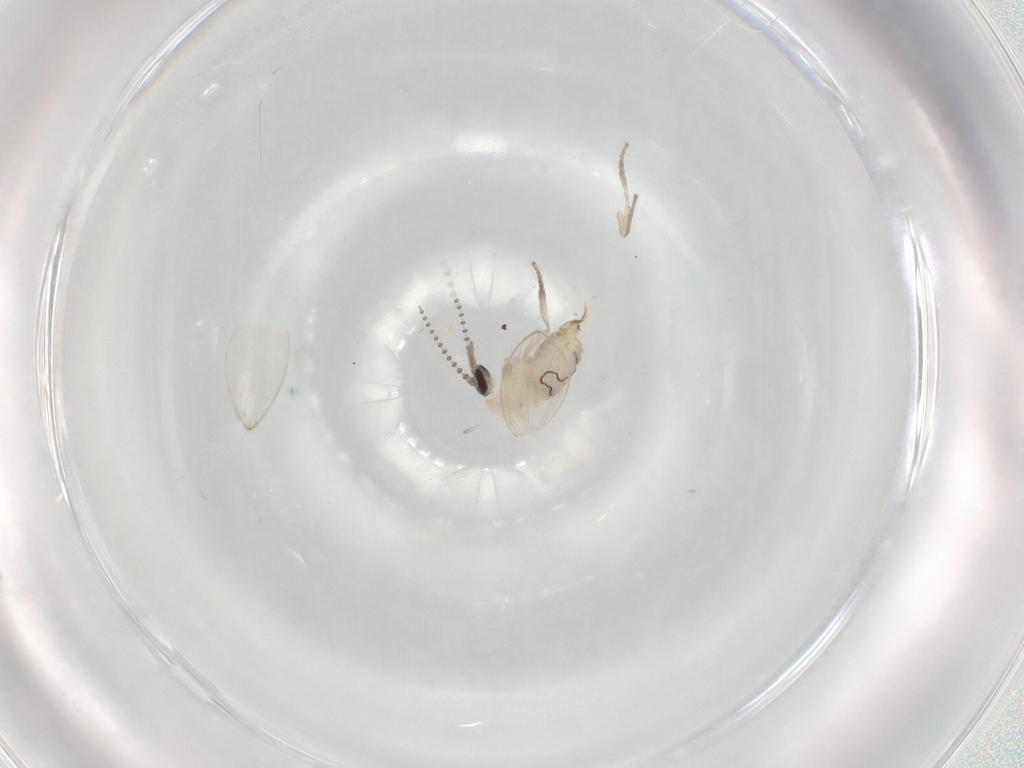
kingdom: Animalia
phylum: Arthropoda
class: Insecta
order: Diptera
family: Psychodidae
